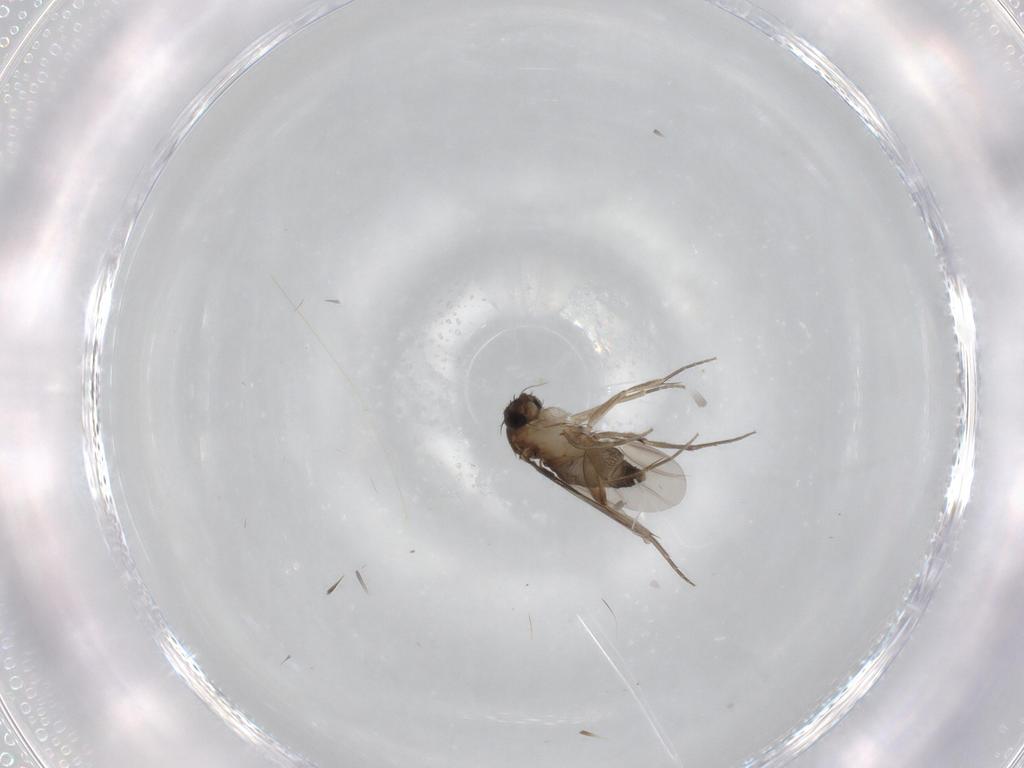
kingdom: Animalia
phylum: Arthropoda
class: Insecta
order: Diptera
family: Phoridae
